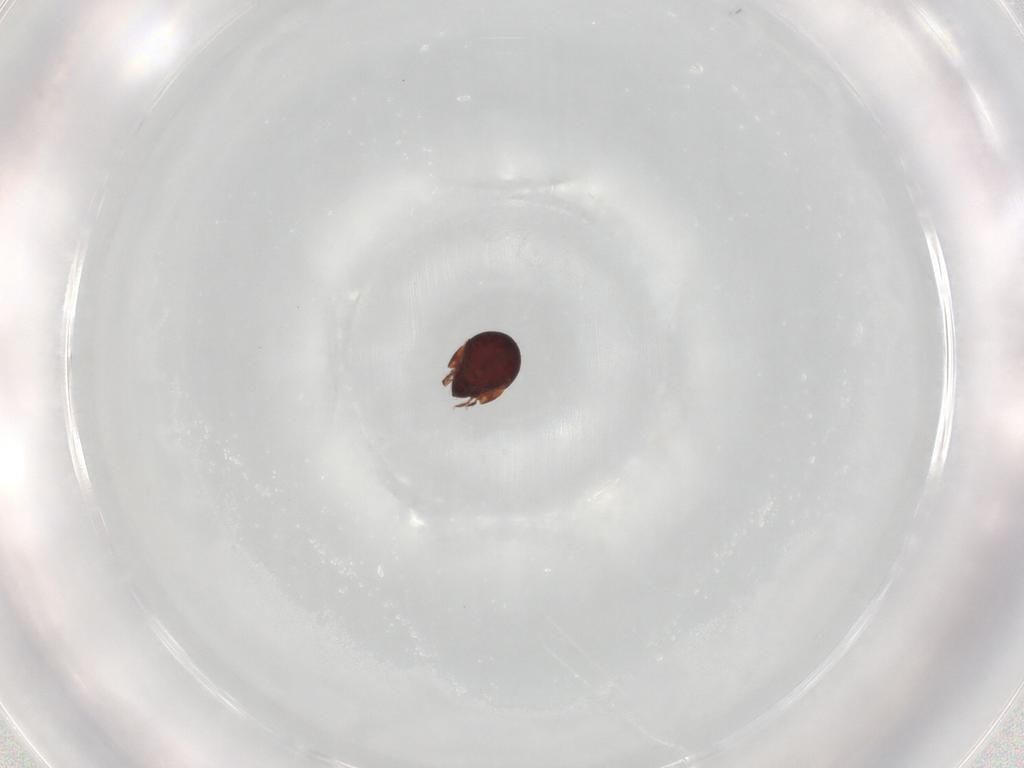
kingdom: Animalia
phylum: Arthropoda
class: Arachnida
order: Sarcoptiformes
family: Humerobatidae
